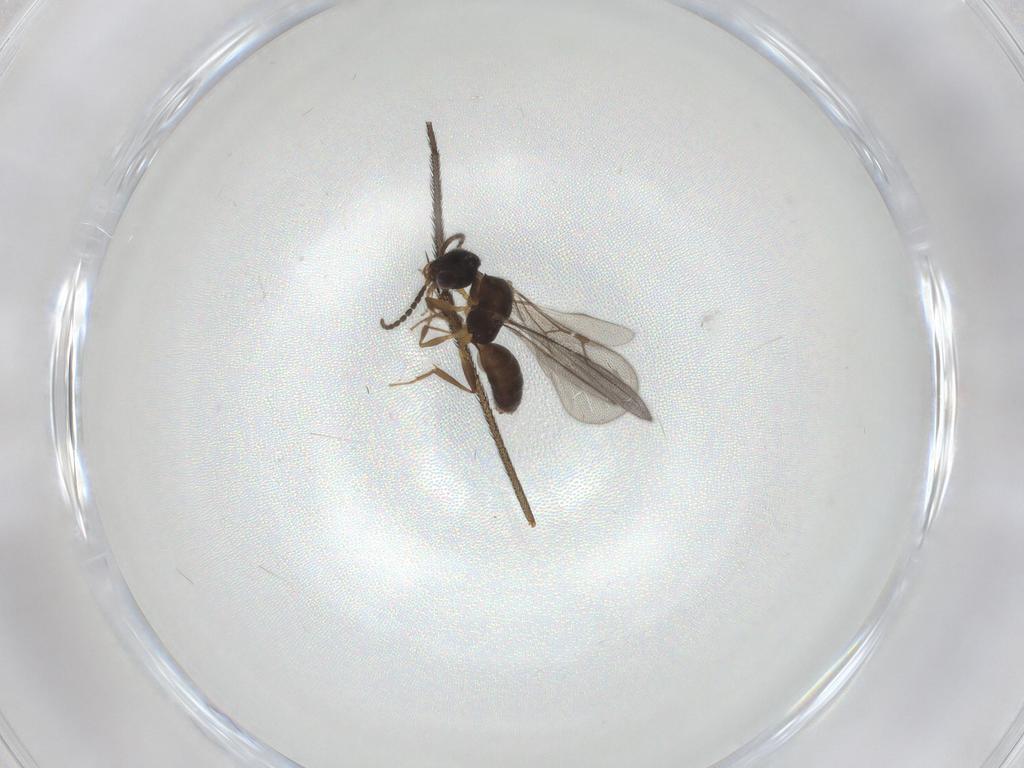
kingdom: Animalia
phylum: Arthropoda
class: Insecta
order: Hymenoptera
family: Bethylidae
